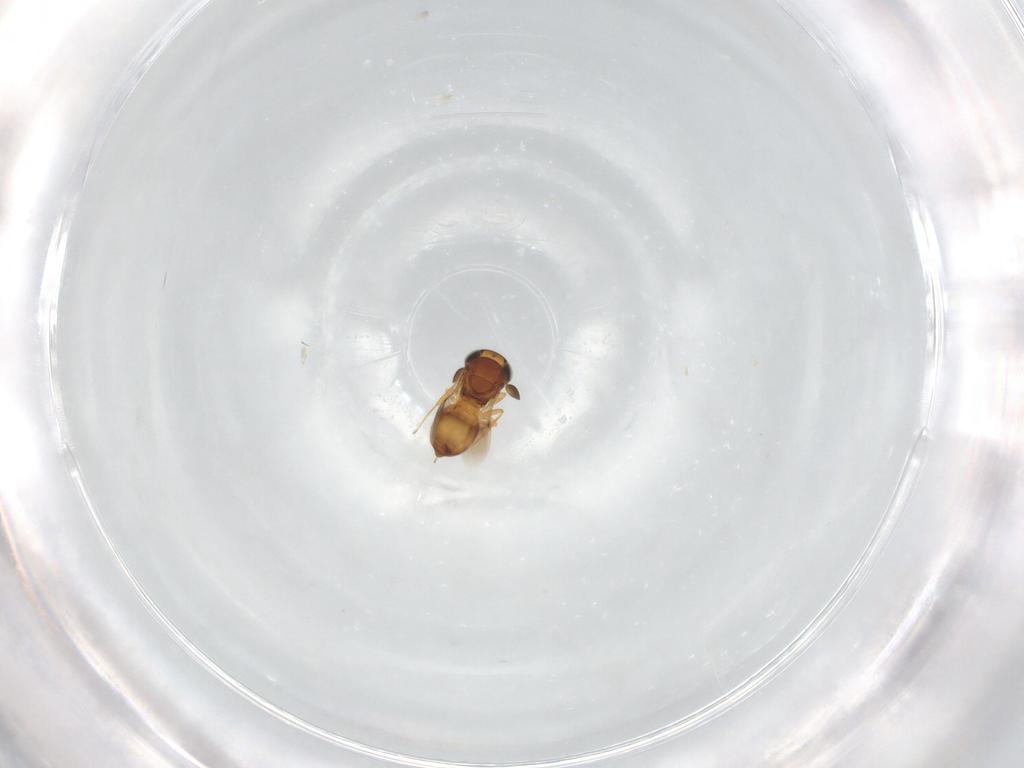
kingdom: Animalia
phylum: Arthropoda
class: Insecta
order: Hymenoptera
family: Scelionidae
